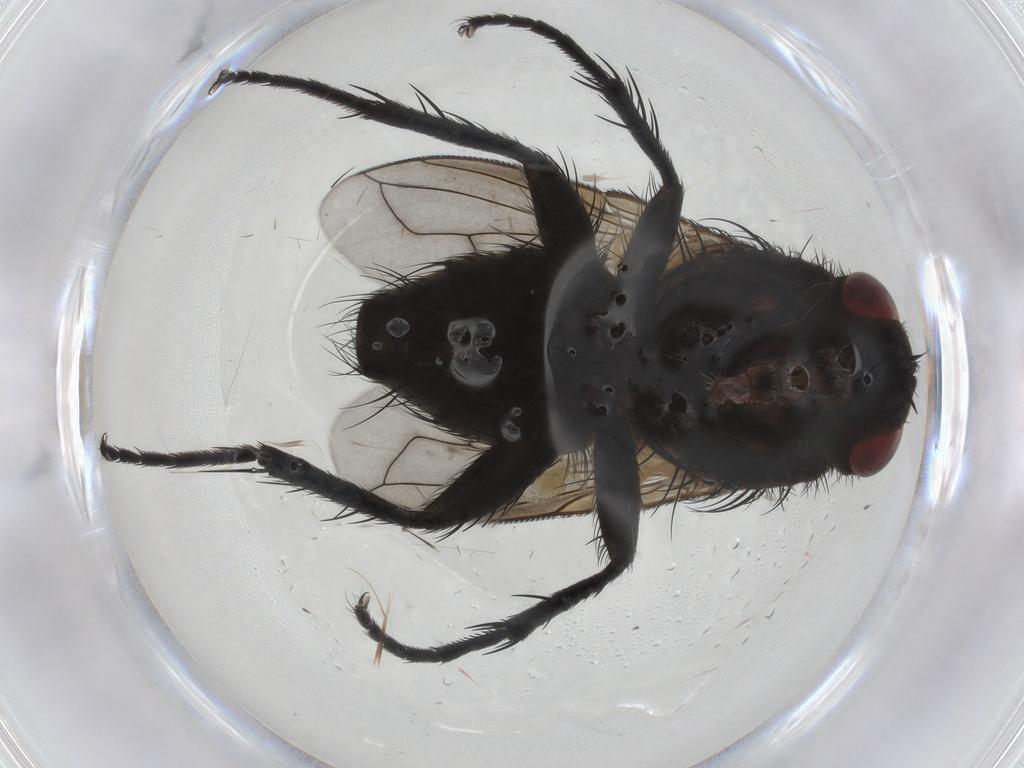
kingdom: Animalia
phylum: Arthropoda
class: Insecta
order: Diptera
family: Tachinidae
